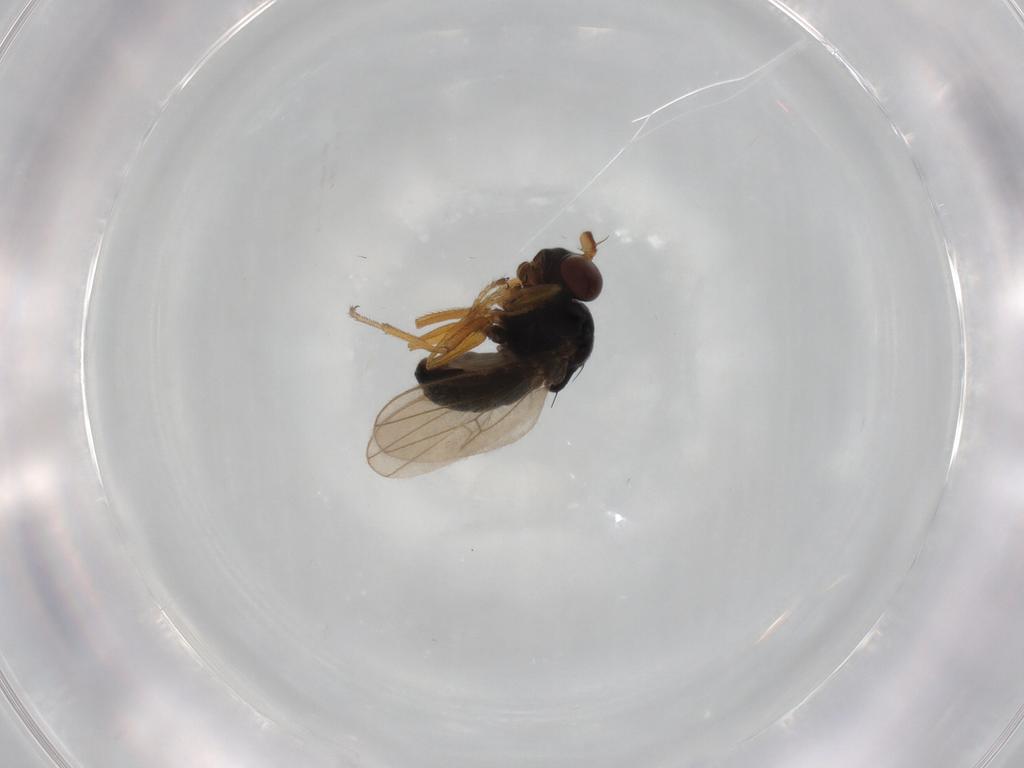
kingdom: Animalia
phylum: Arthropoda
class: Insecta
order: Diptera
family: Ephydridae
